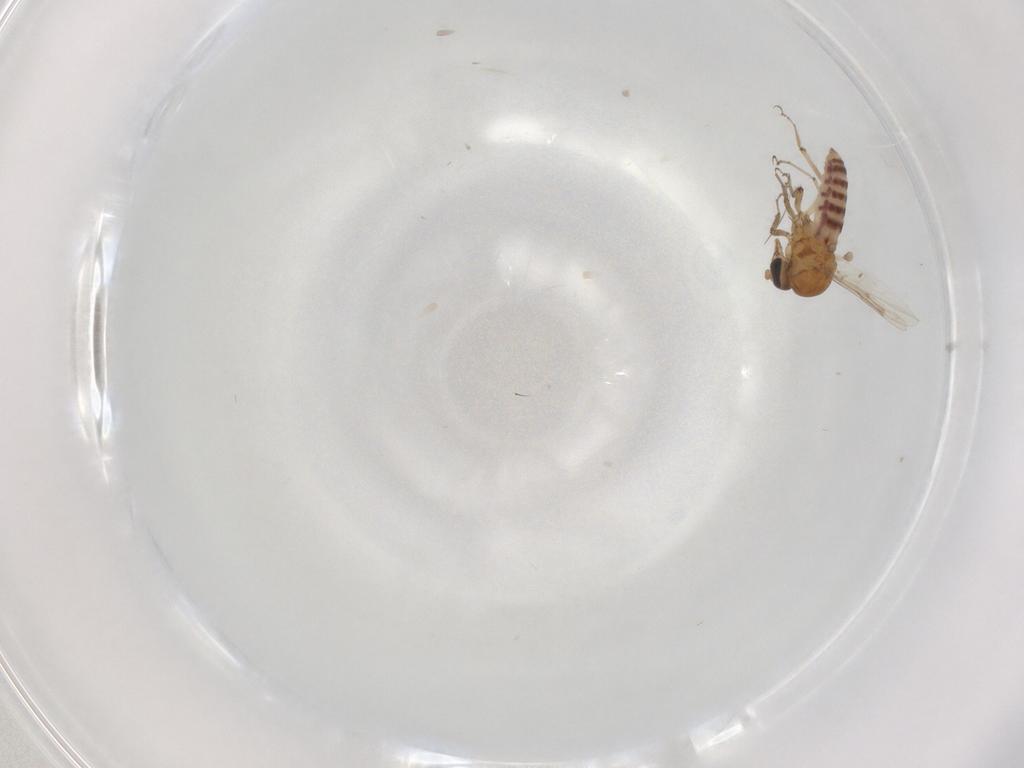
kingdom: Animalia
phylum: Arthropoda
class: Insecta
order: Diptera
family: Ceratopogonidae
